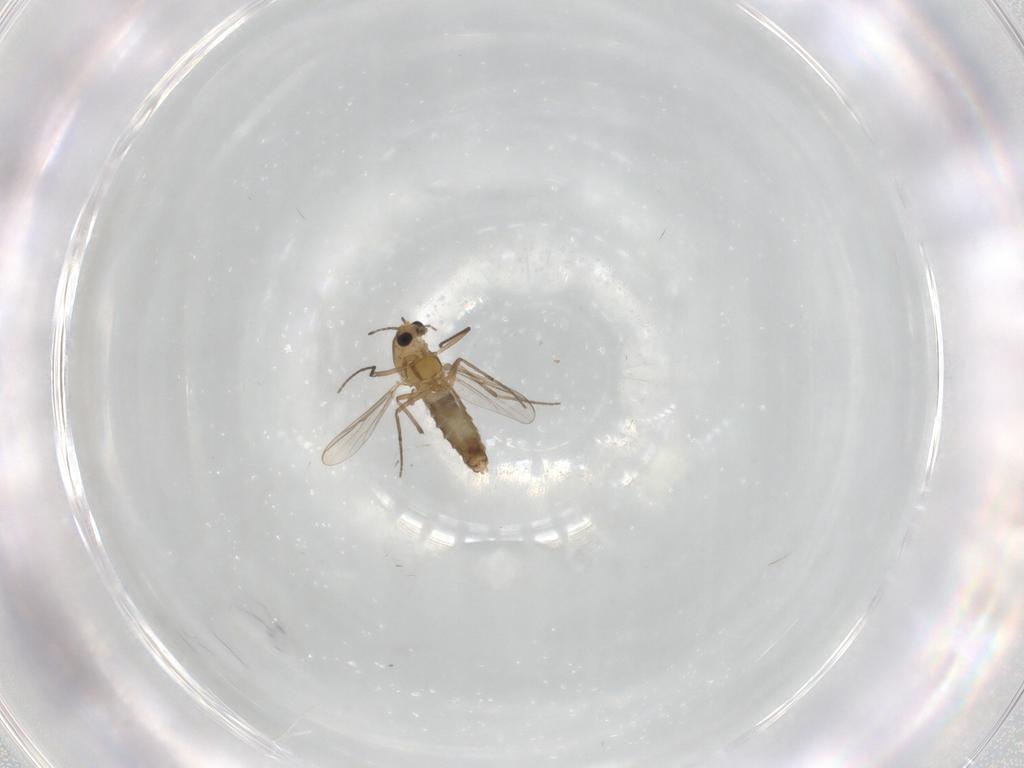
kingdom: Animalia
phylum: Arthropoda
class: Insecta
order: Diptera
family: Chironomidae
